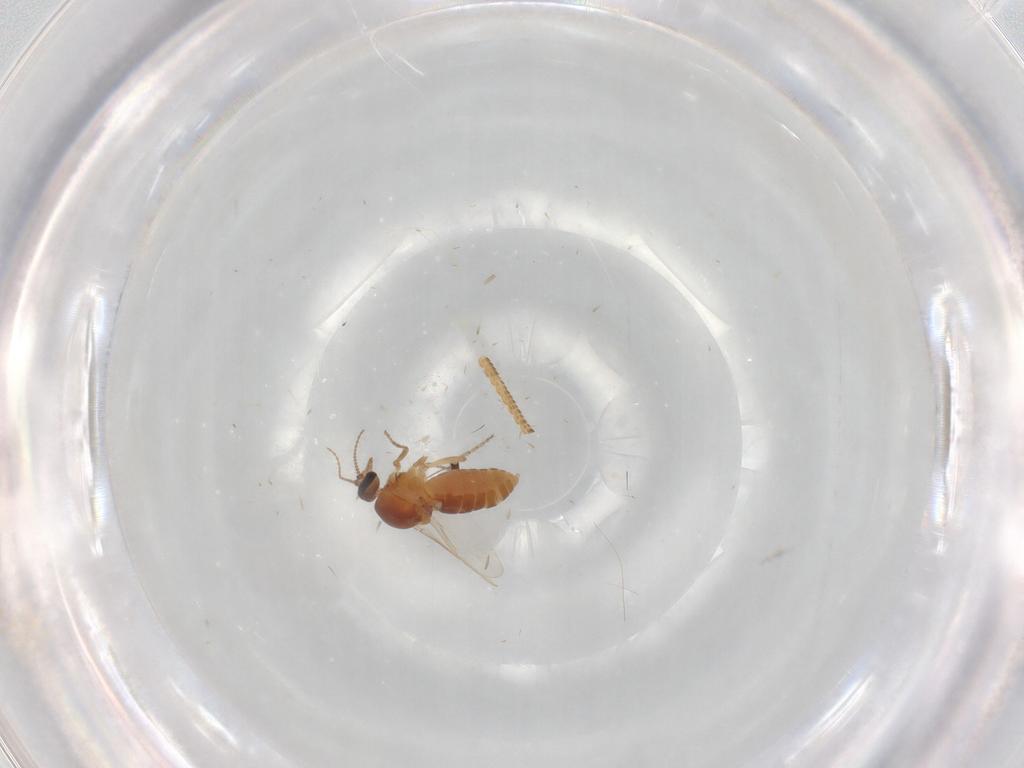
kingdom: Animalia
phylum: Arthropoda
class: Insecta
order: Diptera
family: Ceratopogonidae
